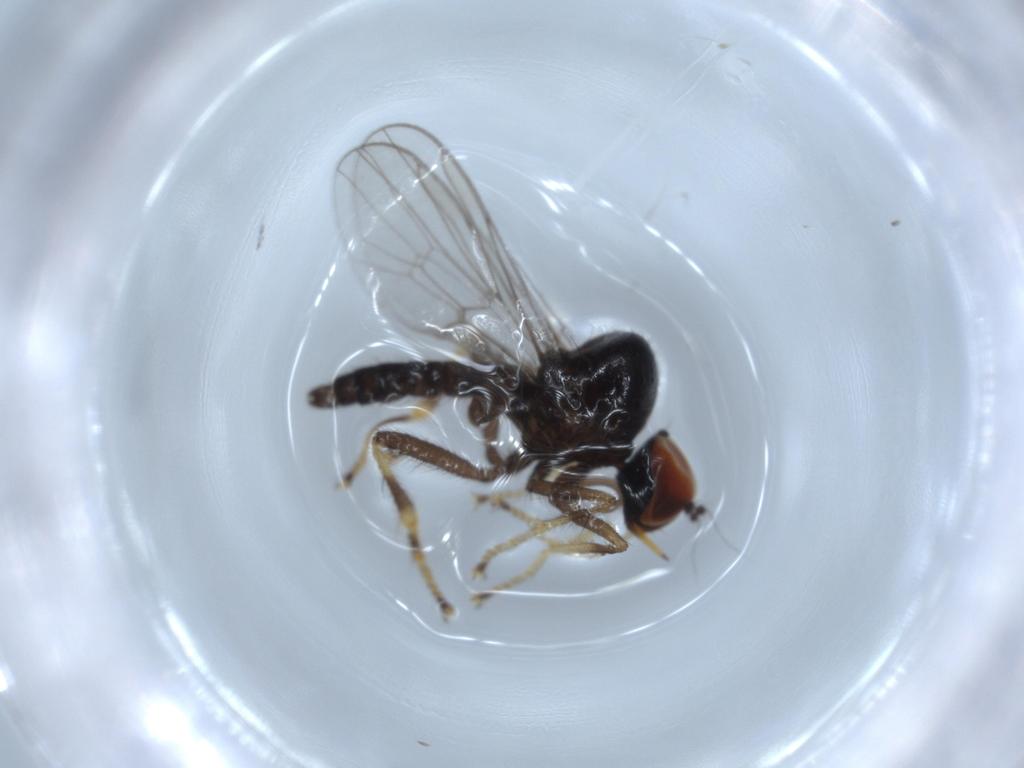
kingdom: Animalia
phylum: Arthropoda
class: Insecta
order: Diptera
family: Hybotidae
